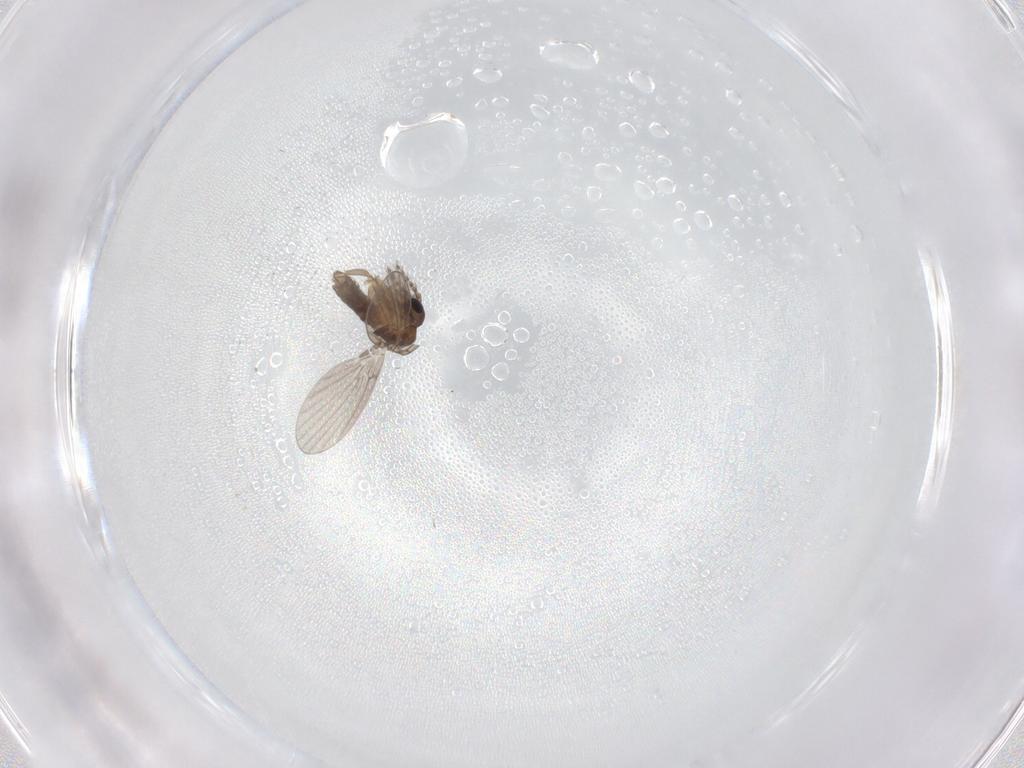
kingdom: Animalia
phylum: Arthropoda
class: Insecta
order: Diptera
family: Cecidomyiidae
